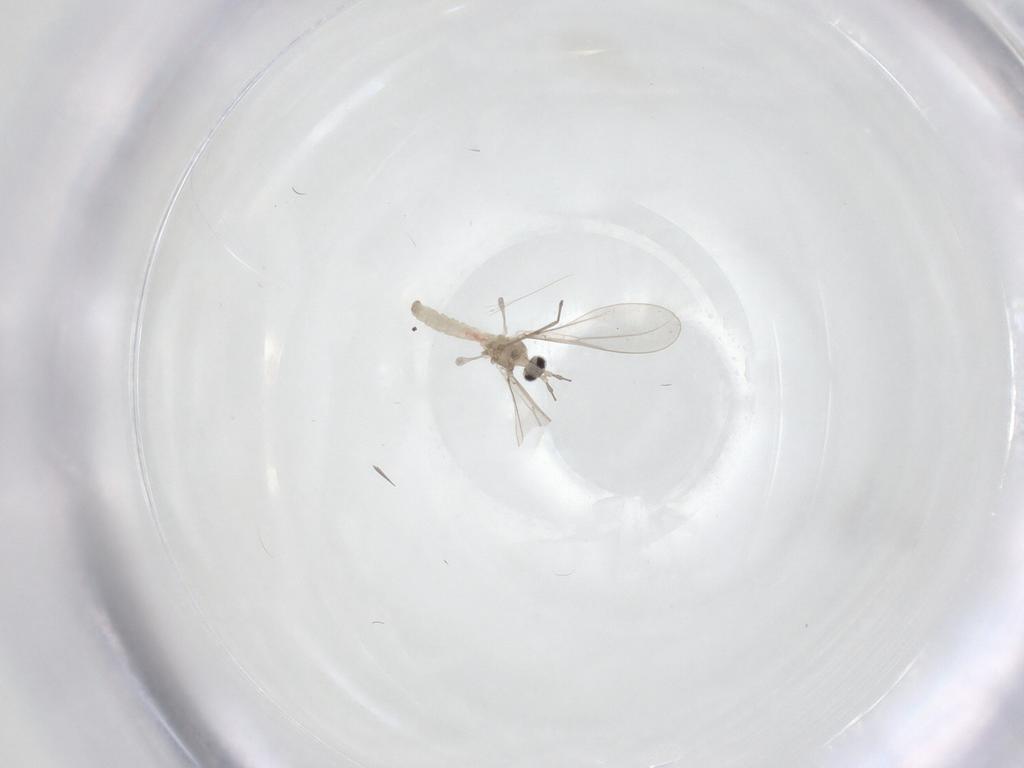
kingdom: Animalia
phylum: Arthropoda
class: Insecta
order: Diptera
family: Cecidomyiidae
